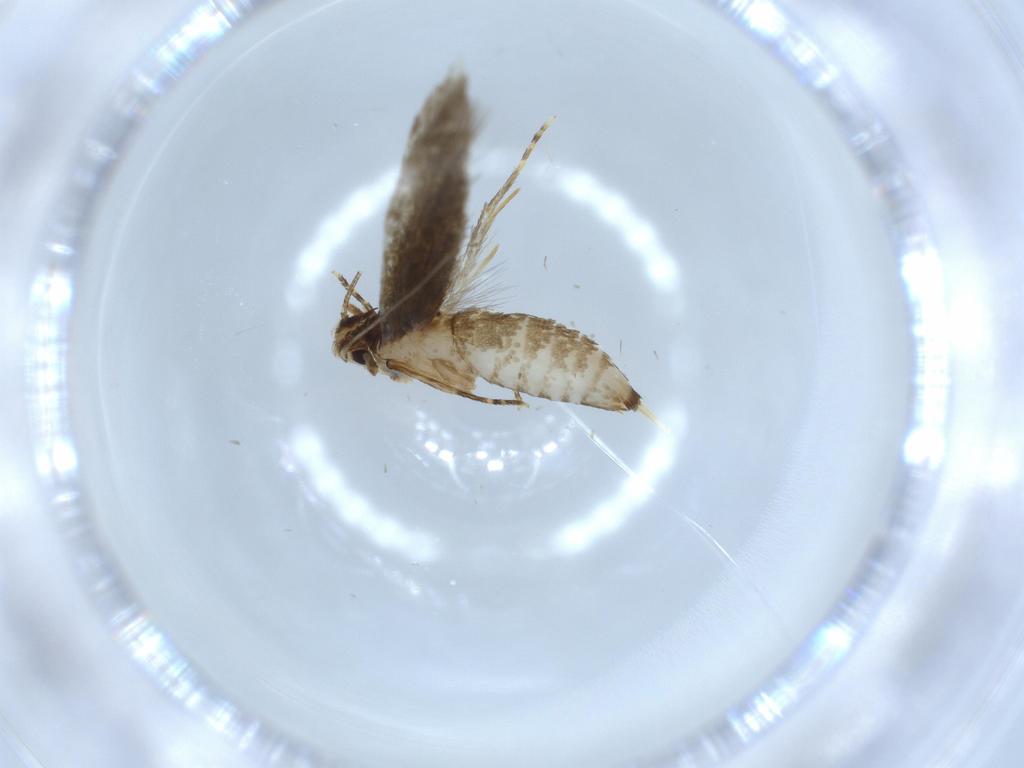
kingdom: Animalia
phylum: Arthropoda
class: Insecta
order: Lepidoptera
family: Tineidae
